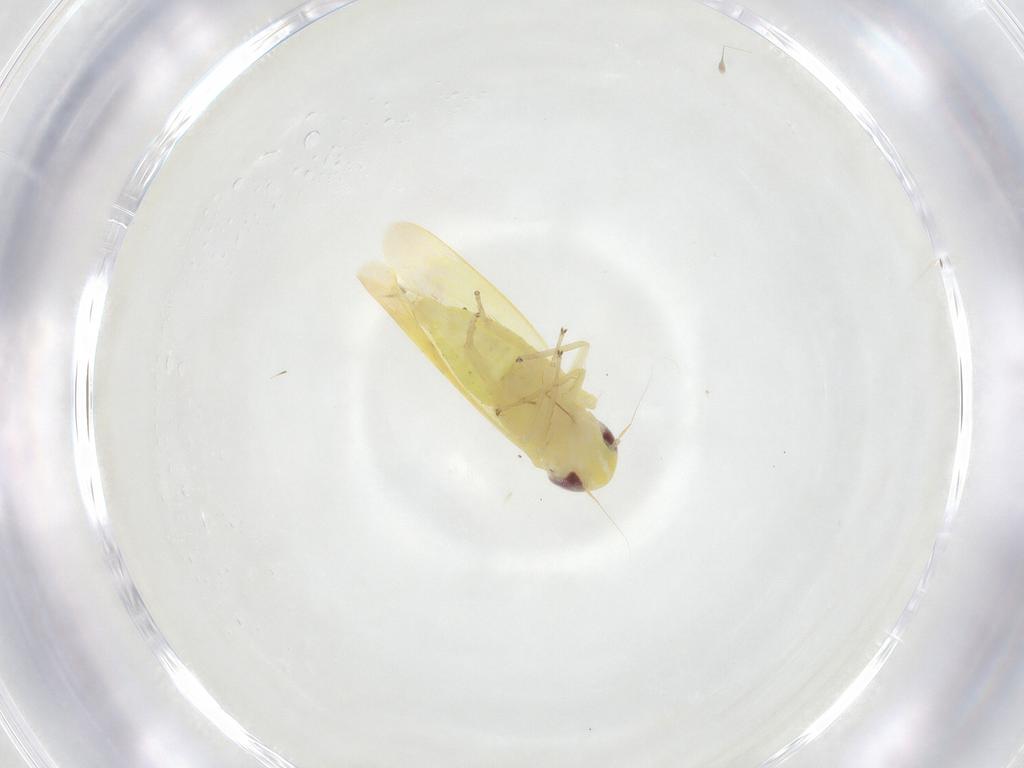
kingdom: Animalia
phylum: Arthropoda
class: Insecta
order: Hemiptera
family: Cicadellidae
